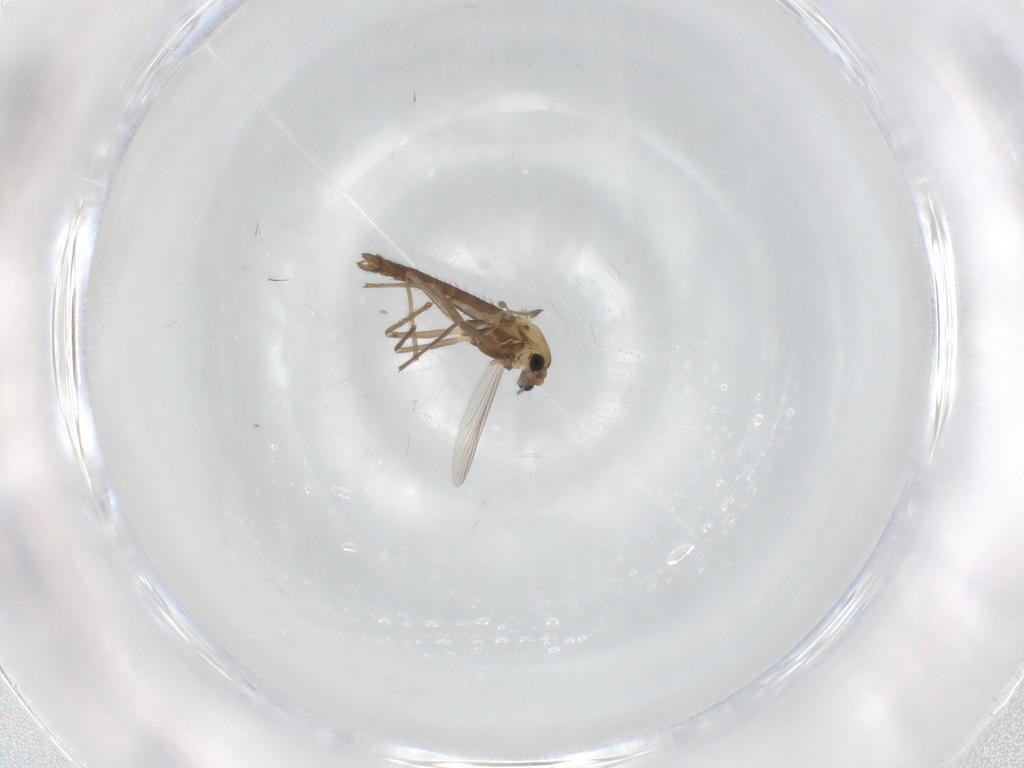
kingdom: Animalia
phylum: Arthropoda
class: Insecta
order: Diptera
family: Chironomidae
